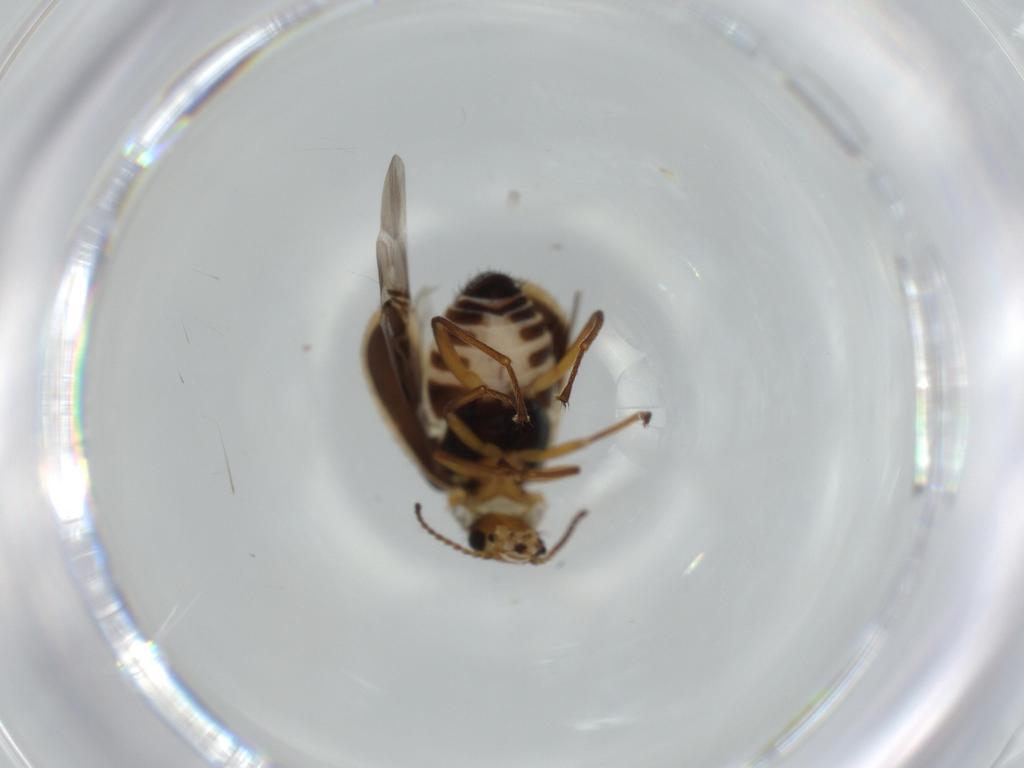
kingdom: Animalia
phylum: Arthropoda
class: Insecta
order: Coleoptera
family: Melyridae
